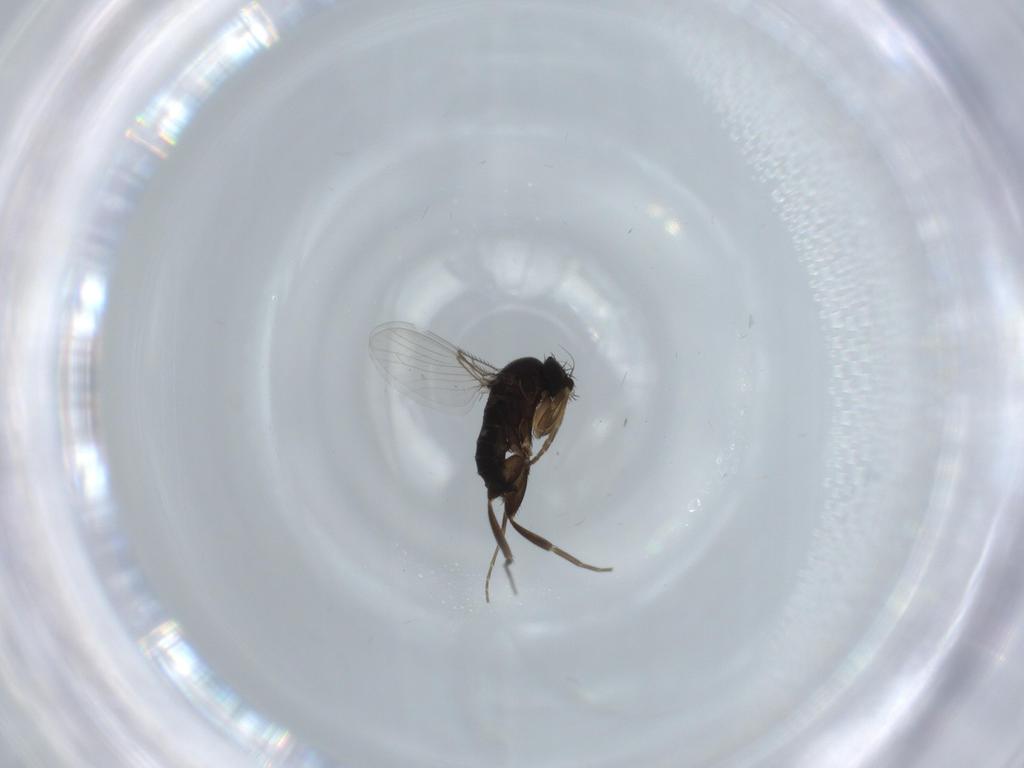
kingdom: Animalia
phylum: Arthropoda
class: Insecta
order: Diptera
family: Phoridae
